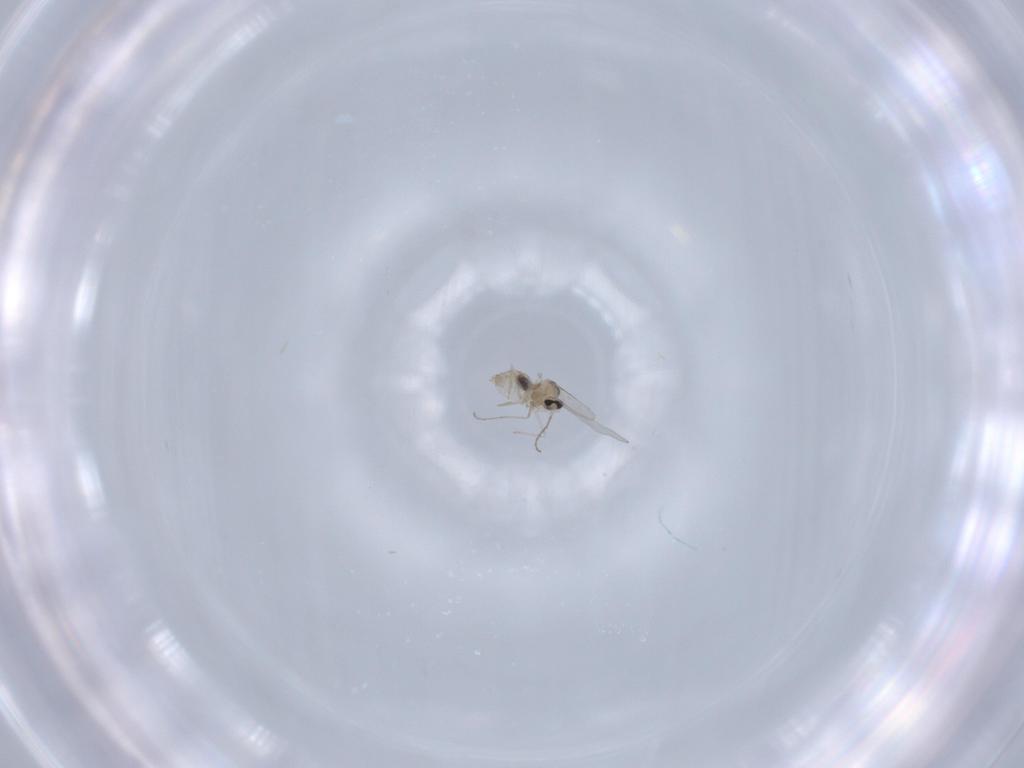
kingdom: Animalia
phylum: Arthropoda
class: Insecta
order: Diptera
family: Cecidomyiidae
